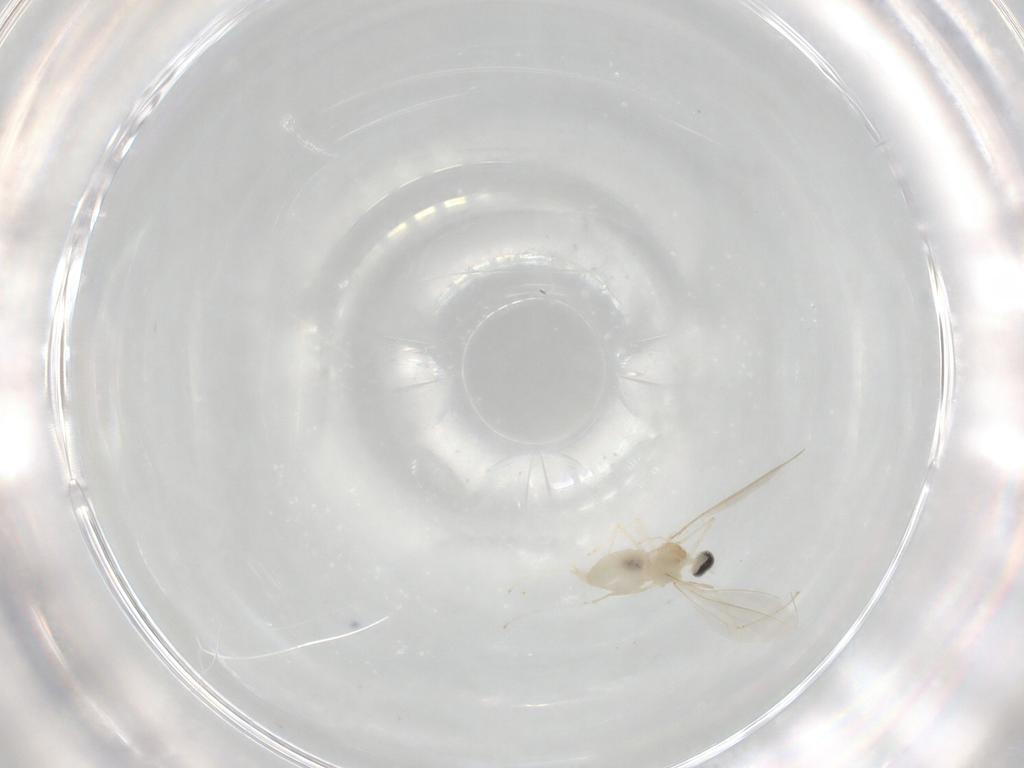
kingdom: Animalia
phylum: Arthropoda
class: Insecta
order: Diptera
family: Cecidomyiidae
